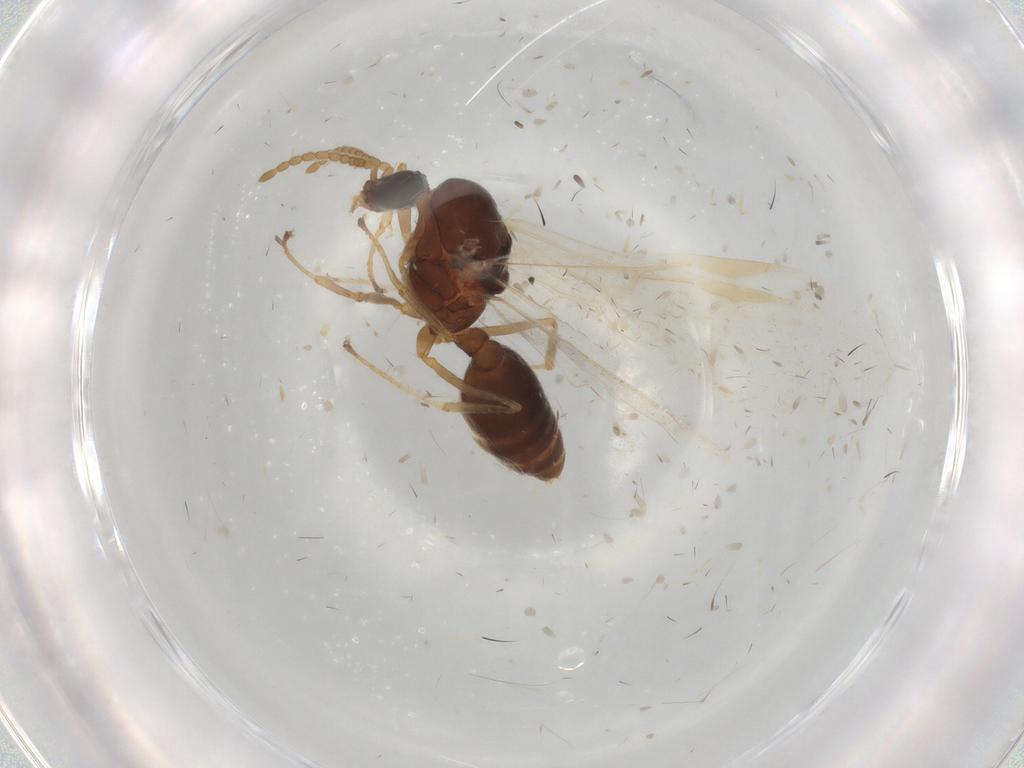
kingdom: Animalia
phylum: Arthropoda
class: Insecta
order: Hymenoptera
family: Formicidae
